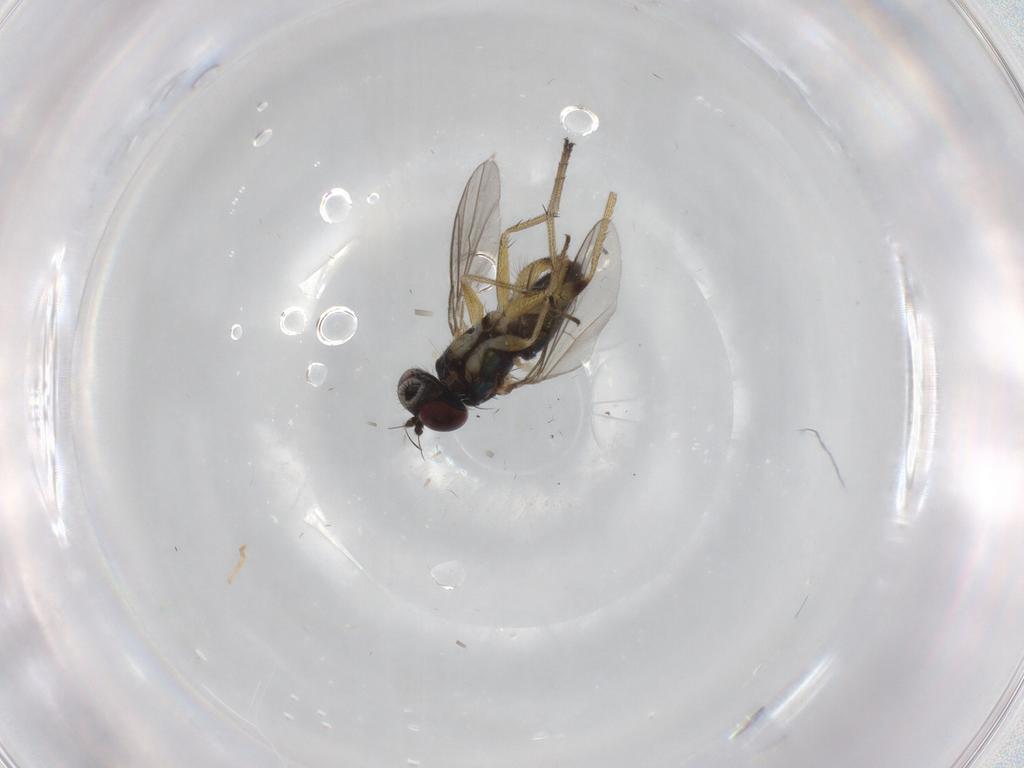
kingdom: Animalia
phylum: Arthropoda
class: Insecta
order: Diptera
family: Dolichopodidae
